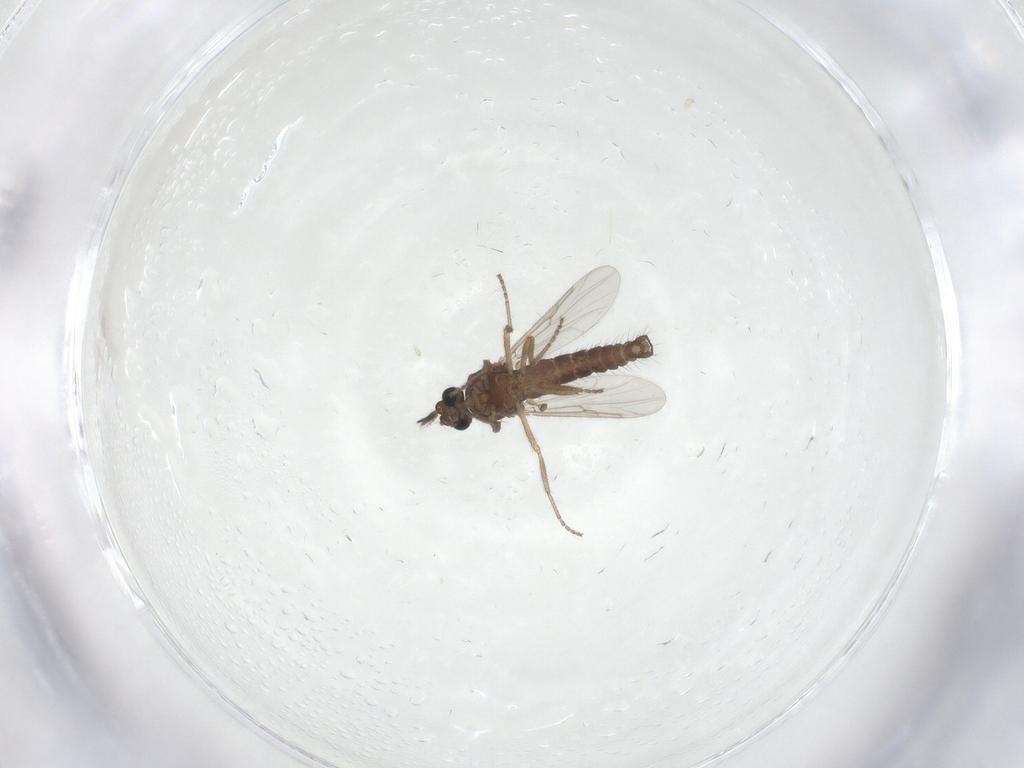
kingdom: Animalia
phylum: Arthropoda
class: Insecta
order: Diptera
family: Ceratopogonidae
